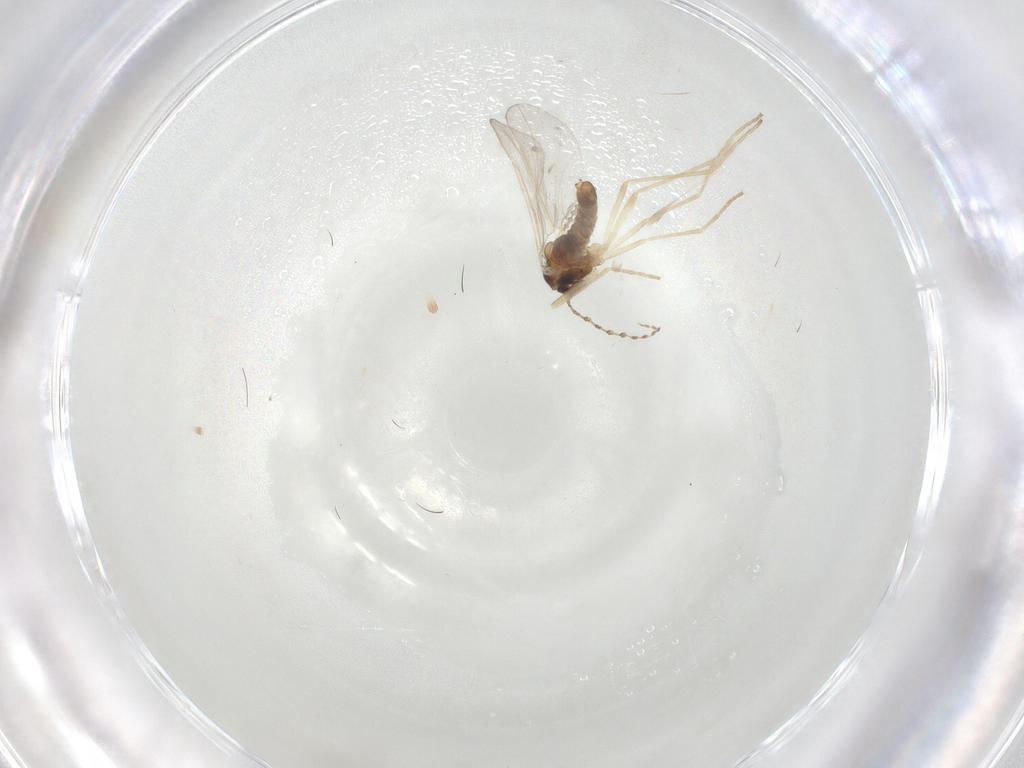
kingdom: Animalia
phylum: Arthropoda
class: Insecta
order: Diptera
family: Cecidomyiidae
